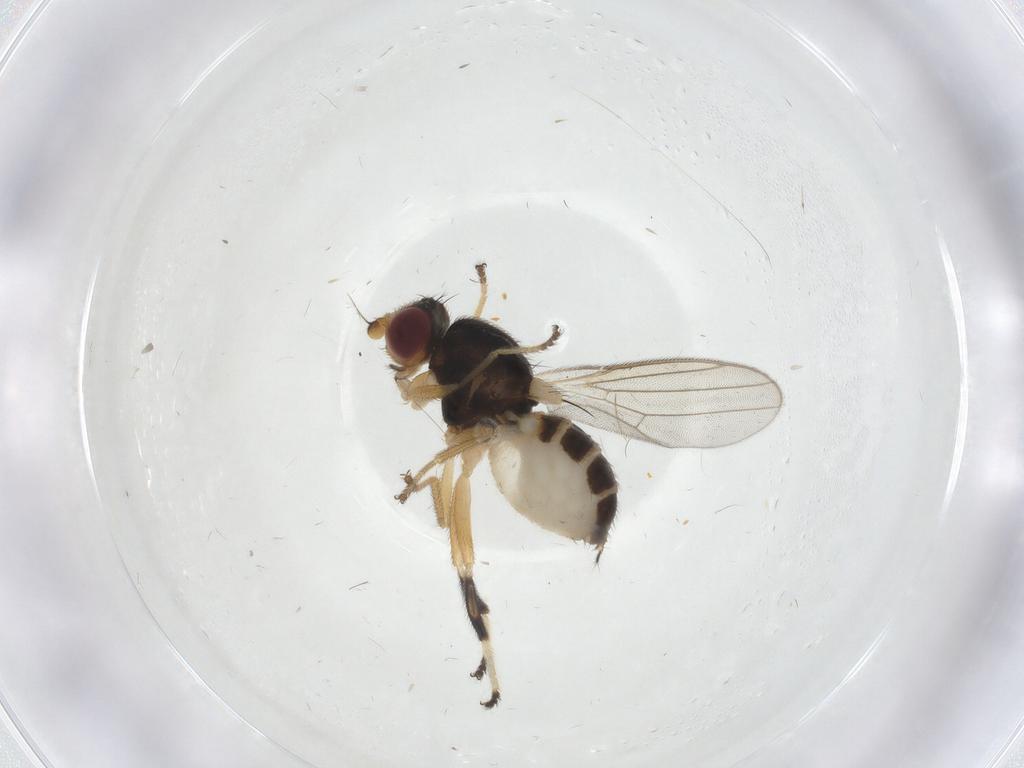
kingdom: Animalia
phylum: Arthropoda
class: Insecta
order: Diptera
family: Chloropidae
